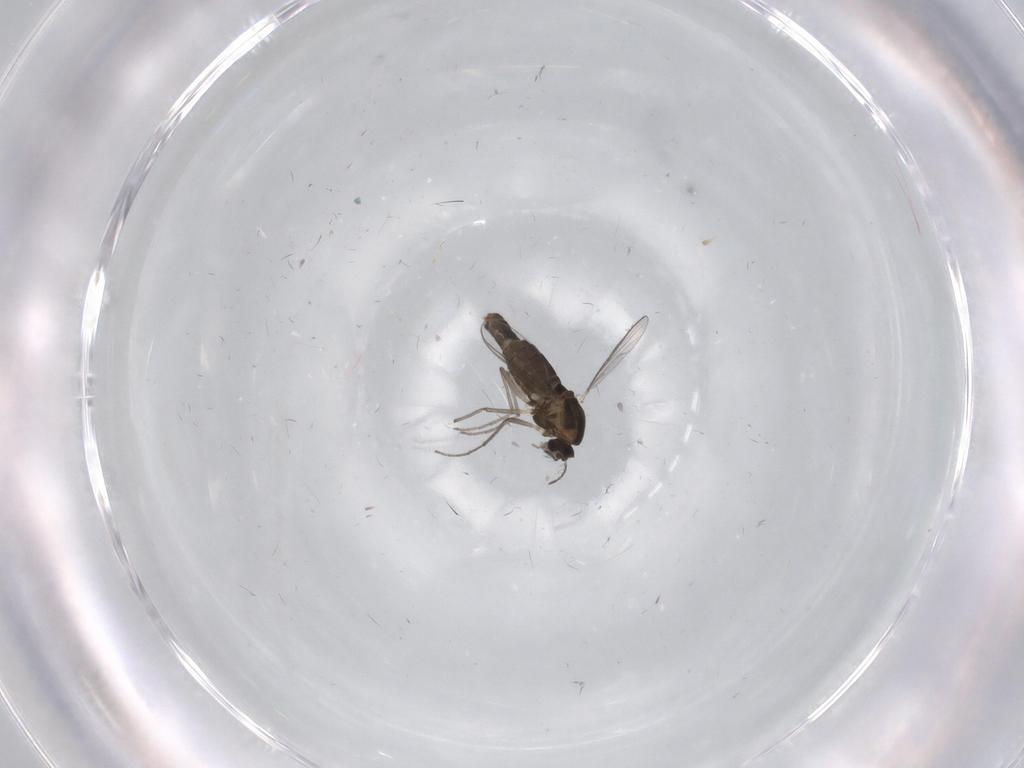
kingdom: Animalia
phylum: Arthropoda
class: Insecta
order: Diptera
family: Chironomidae
